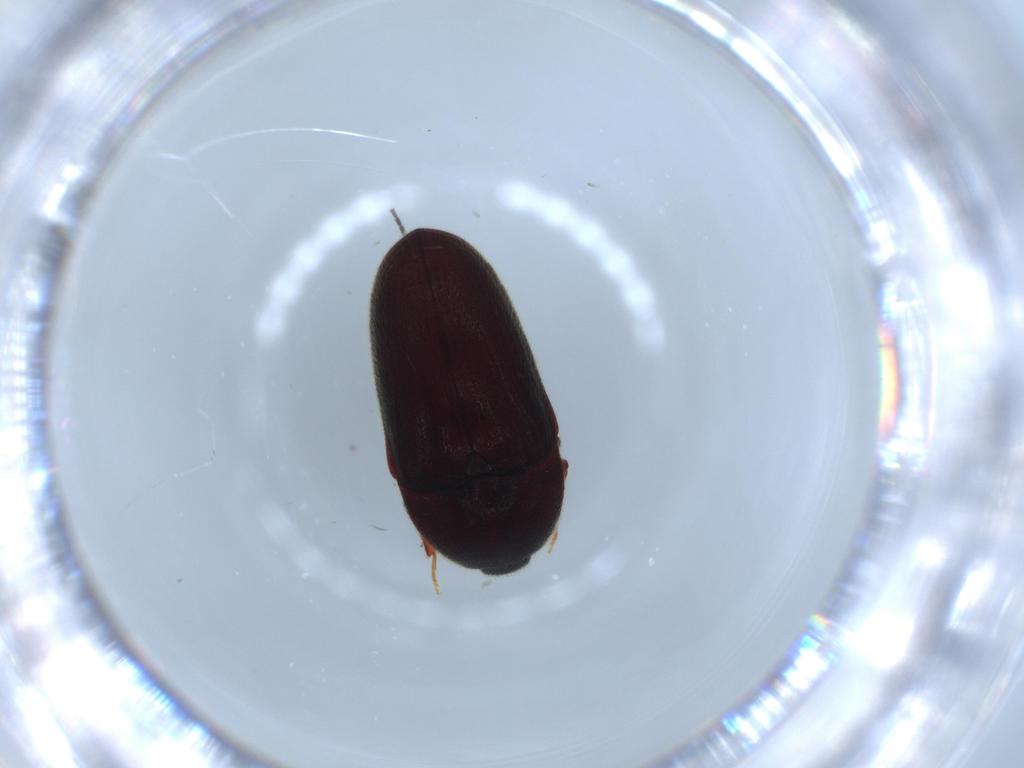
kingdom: Animalia
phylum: Arthropoda
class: Insecta
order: Coleoptera
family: Throscidae
